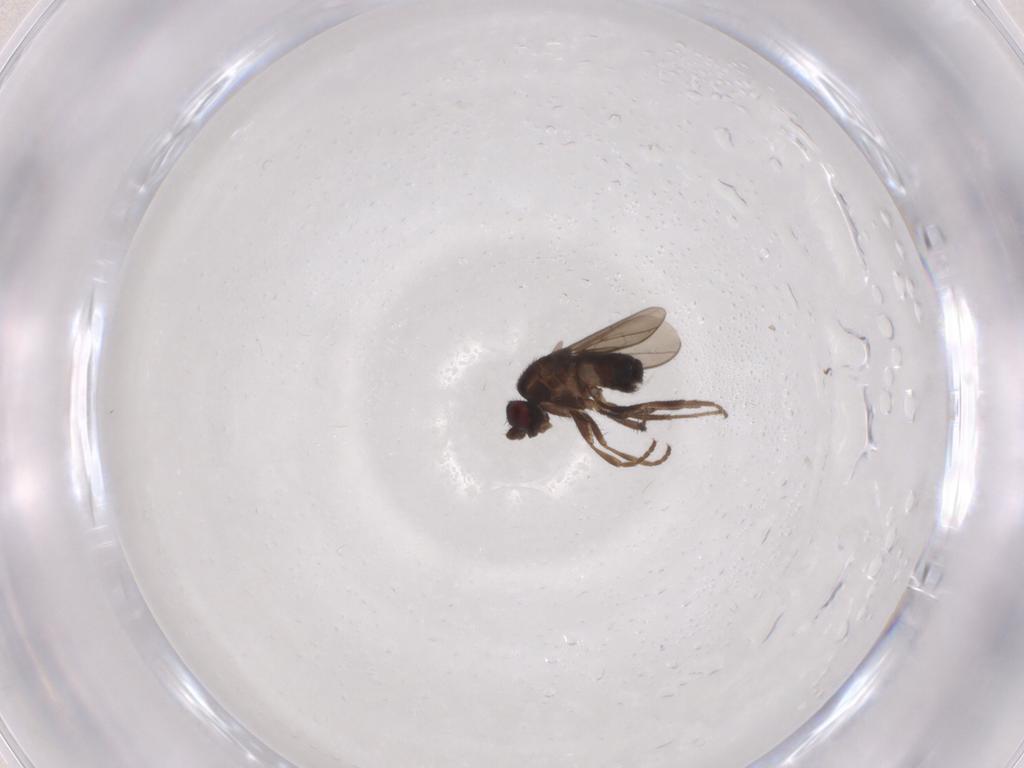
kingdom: Animalia
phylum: Arthropoda
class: Insecta
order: Diptera
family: Sphaeroceridae
